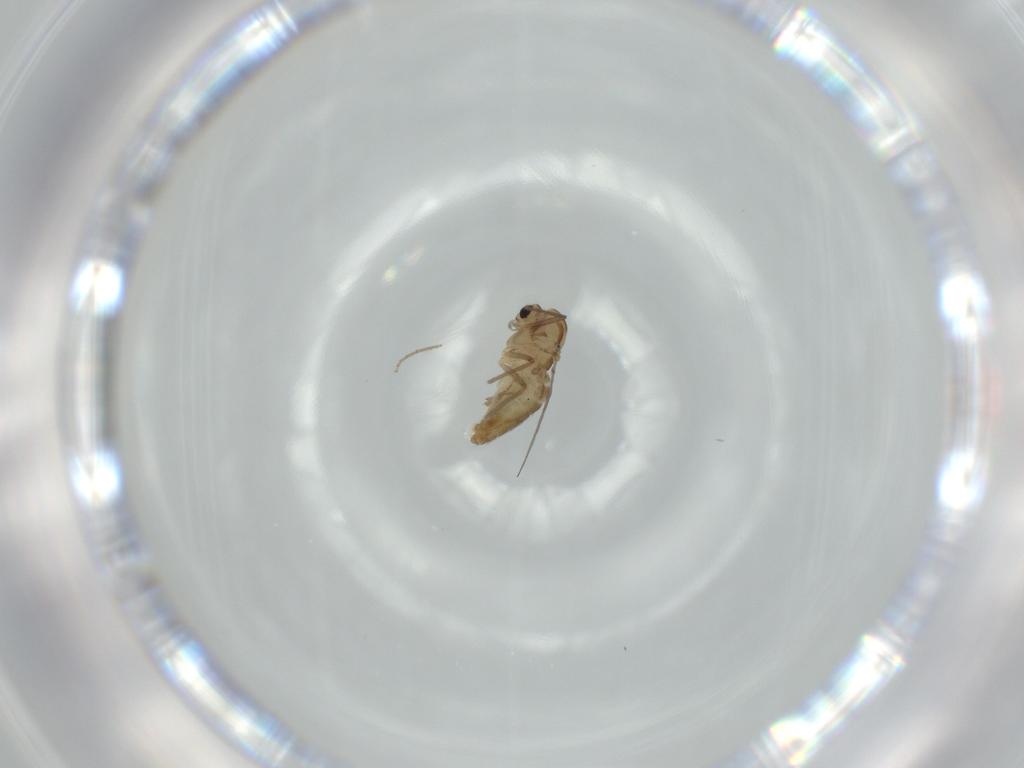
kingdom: Animalia
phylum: Arthropoda
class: Insecta
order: Diptera
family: Chironomidae
